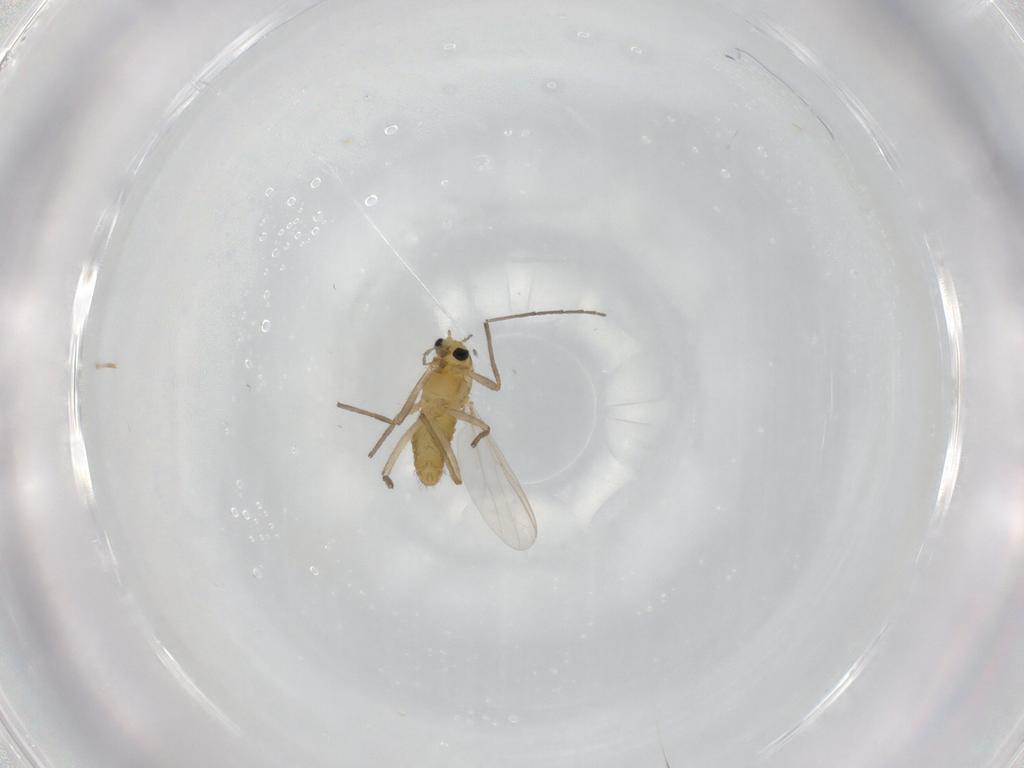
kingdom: Animalia
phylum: Arthropoda
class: Insecta
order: Diptera
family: Chironomidae
